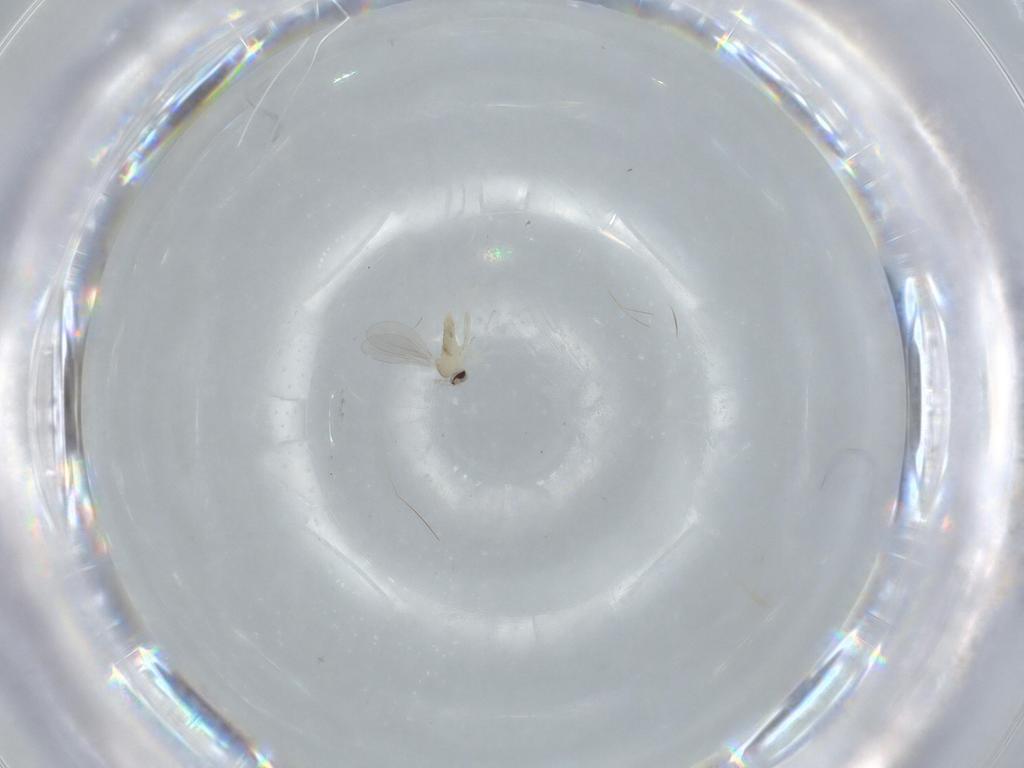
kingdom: Animalia
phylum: Arthropoda
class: Insecta
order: Diptera
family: Cecidomyiidae
